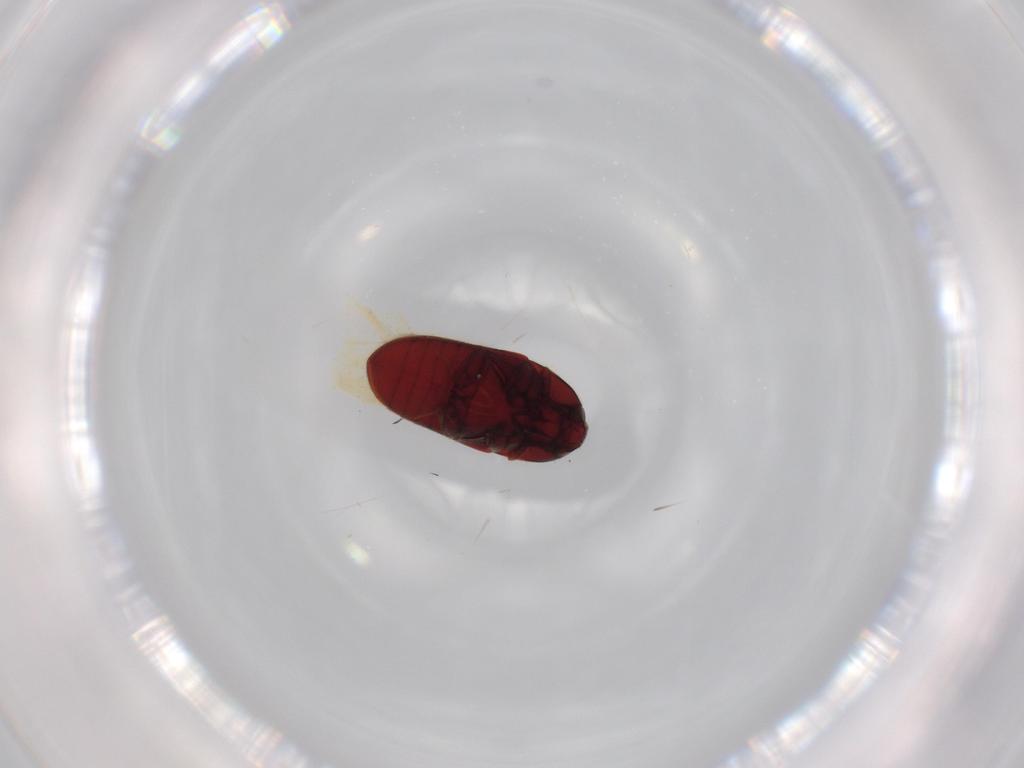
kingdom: Animalia
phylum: Arthropoda
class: Insecta
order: Coleoptera
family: Throscidae
